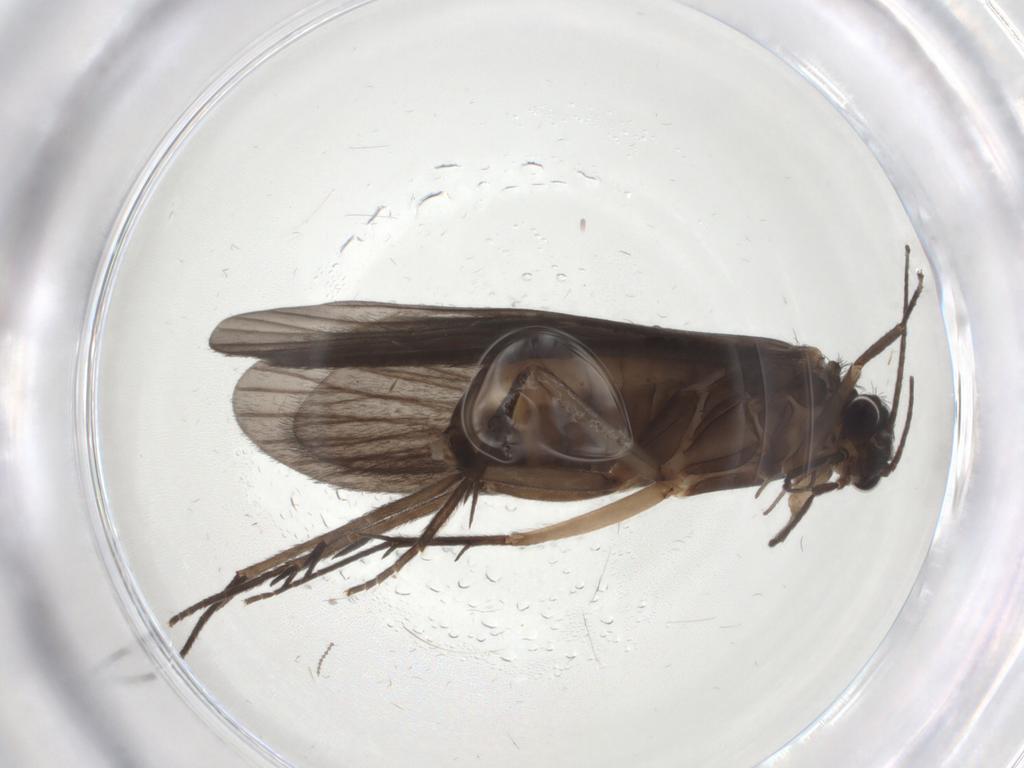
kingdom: Animalia
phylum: Arthropoda
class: Insecta
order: Trichoptera
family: Philopotamidae
